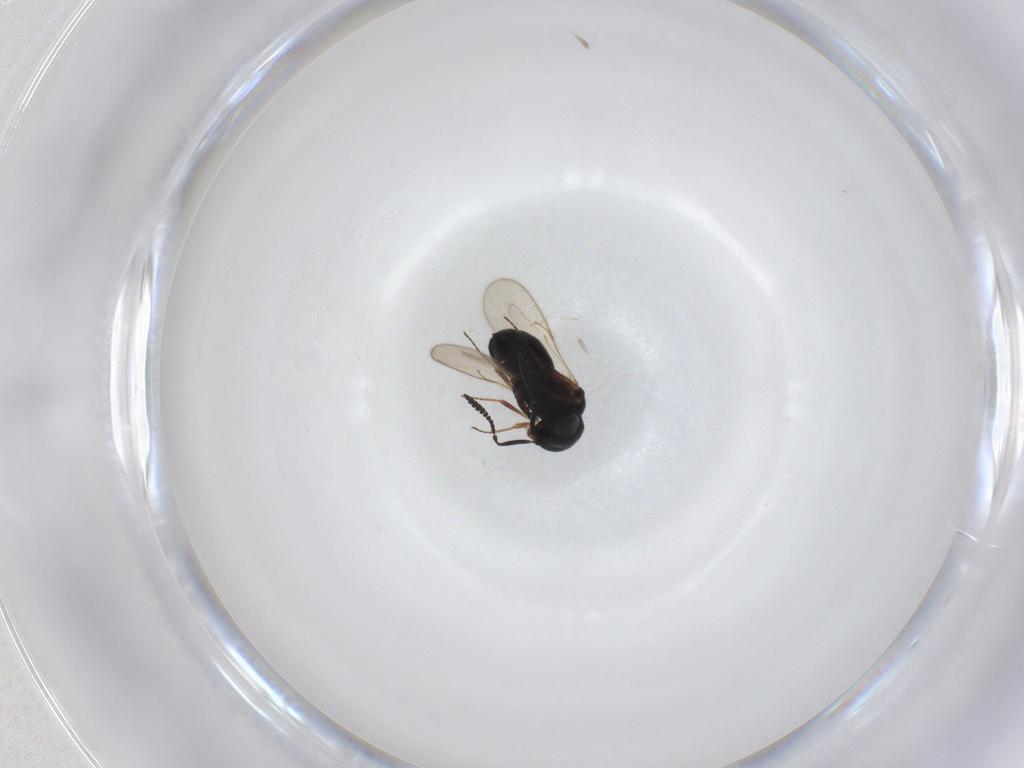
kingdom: Animalia
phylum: Arthropoda
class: Insecta
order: Hymenoptera
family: Scelionidae
